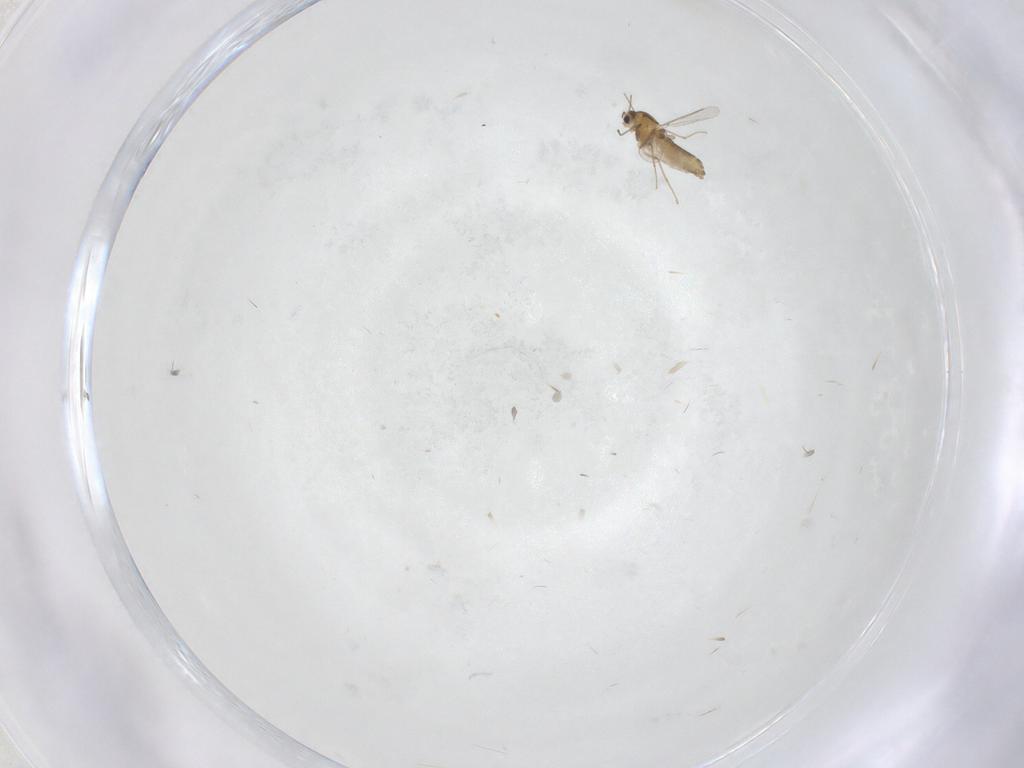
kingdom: Animalia
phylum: Arthropoda
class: Insecta
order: Diptera
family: Chironomidae
